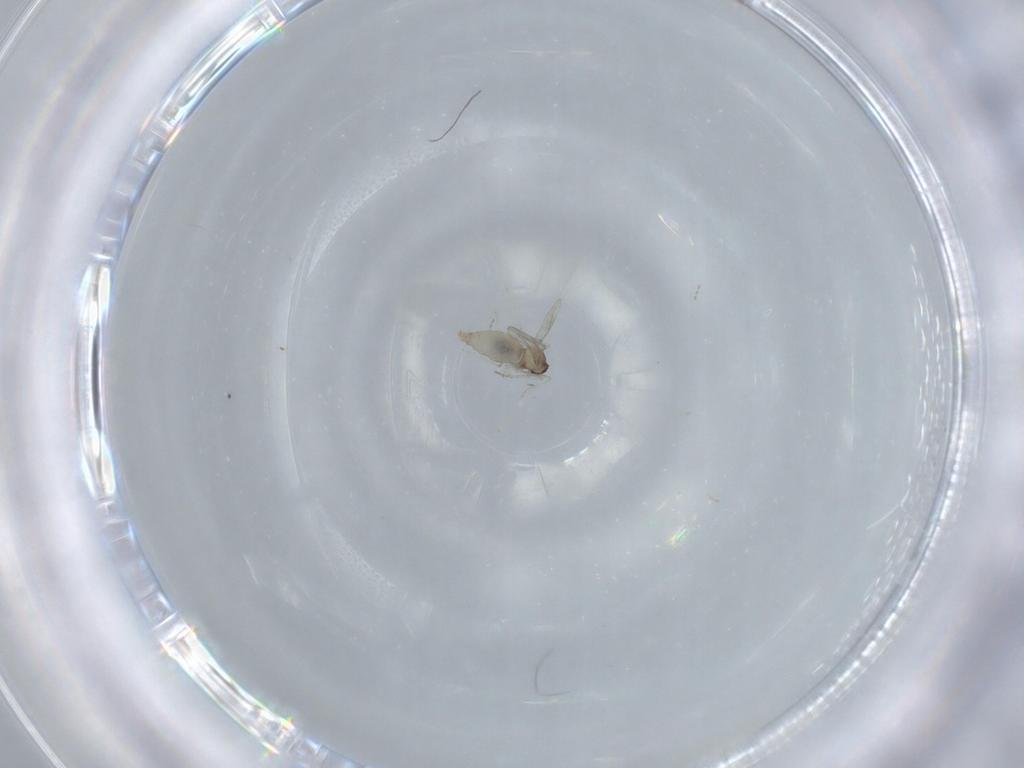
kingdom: Animalia
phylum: Arthropoda
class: Insecta
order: Diptera
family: Cecidomyiidae
